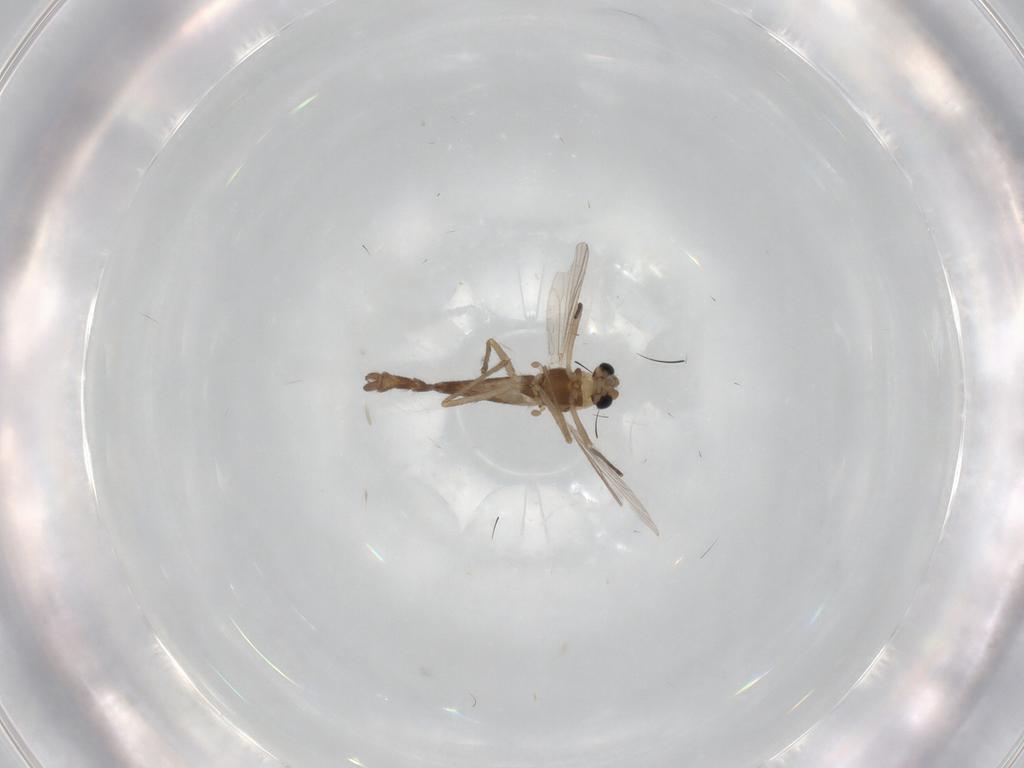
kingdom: Animalia
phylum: Arthropoda
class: Insecta
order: Diptera
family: Chironomidae
